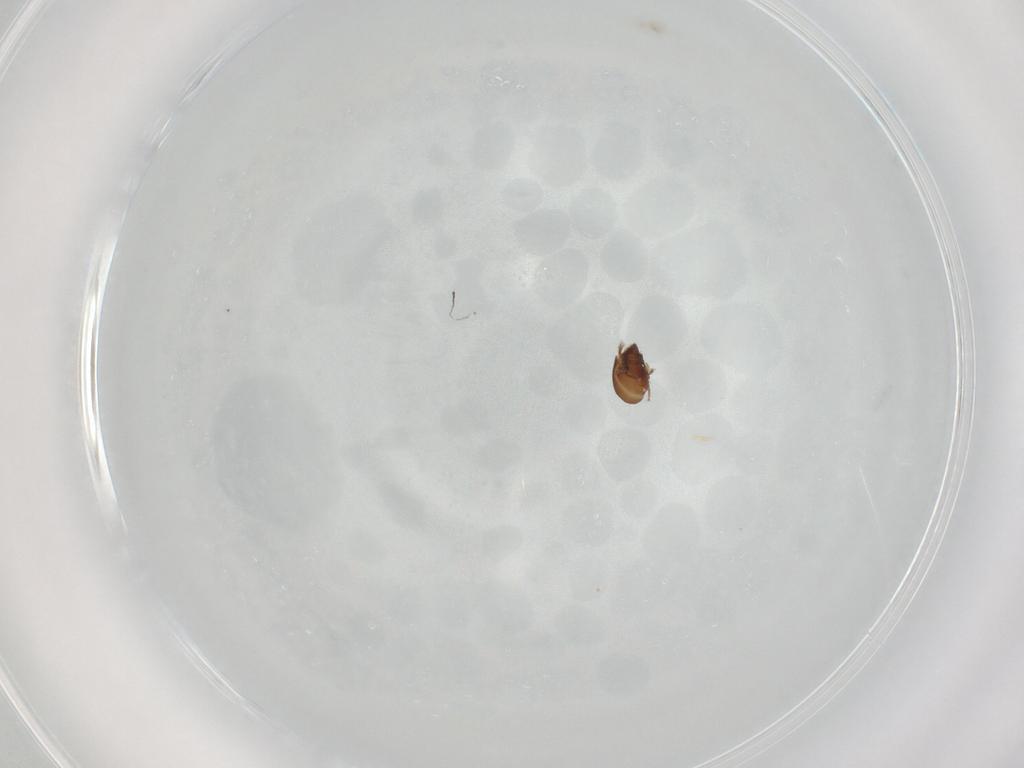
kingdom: Animalia
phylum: Arthropoda
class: Arachnida
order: Sarcoptiformes
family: Phenopelopidae
